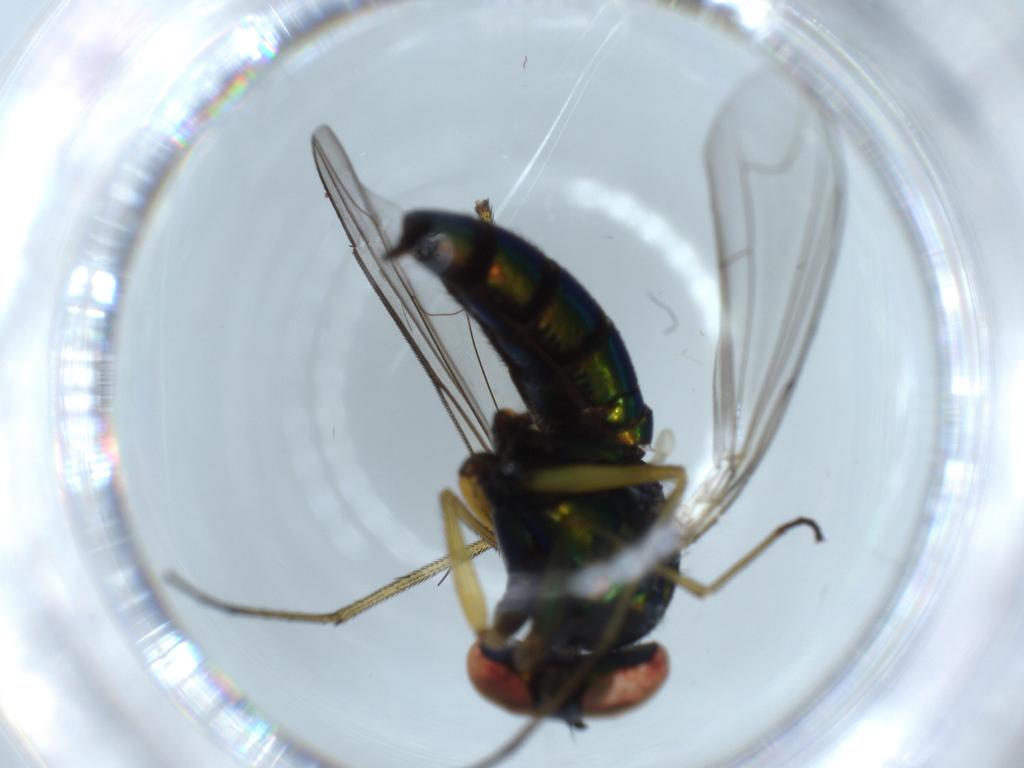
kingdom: Animalia
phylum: Arthropoda
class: Insecta
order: Diptera
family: Dolichopodidae
